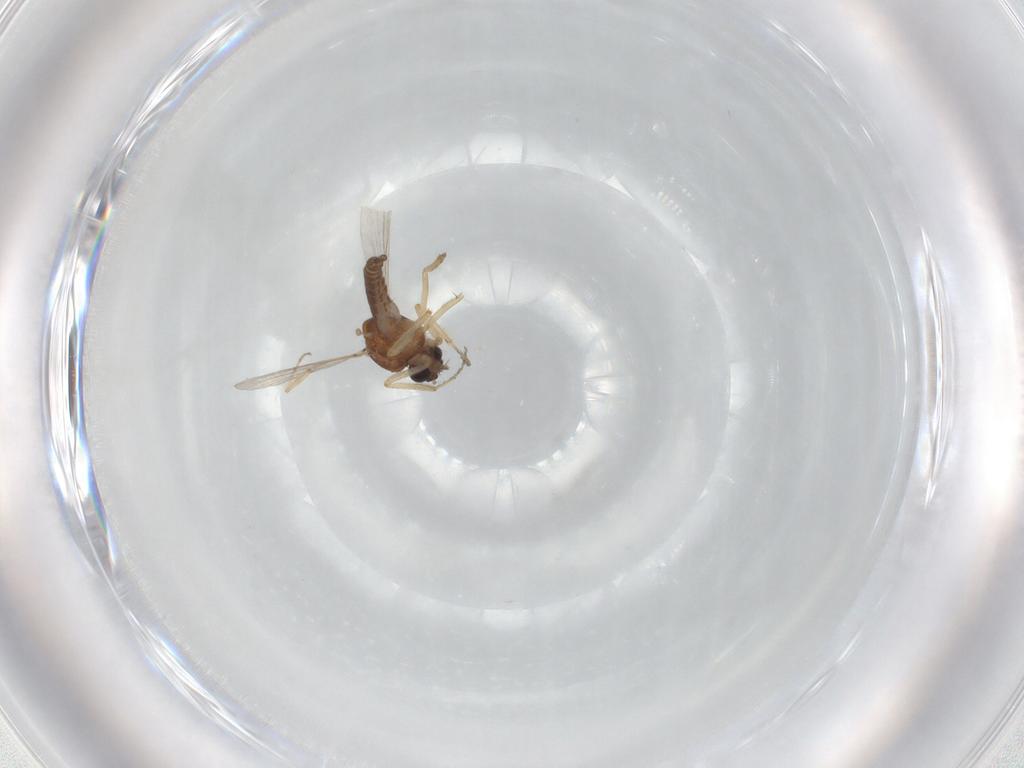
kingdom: Animalia
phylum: Arthropoda
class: Insecta
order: Diptera
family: Ceratopogonidae
